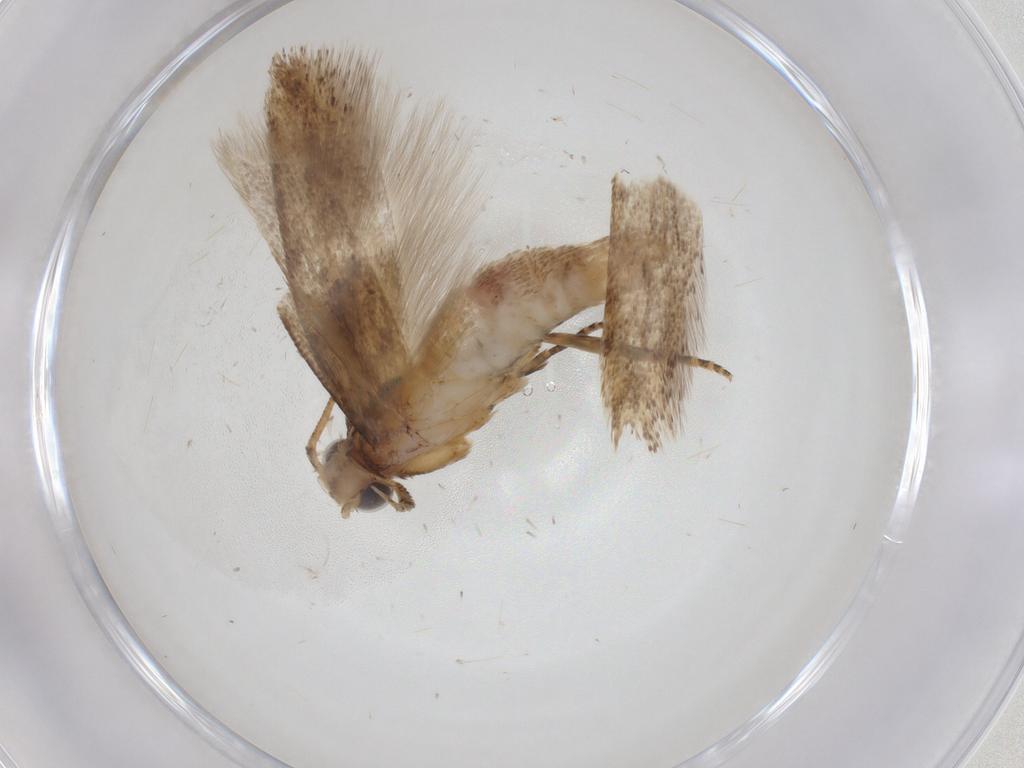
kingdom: Animalia
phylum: Arthropoda
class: Insecta
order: Lepidoptera
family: Gelechiidae
